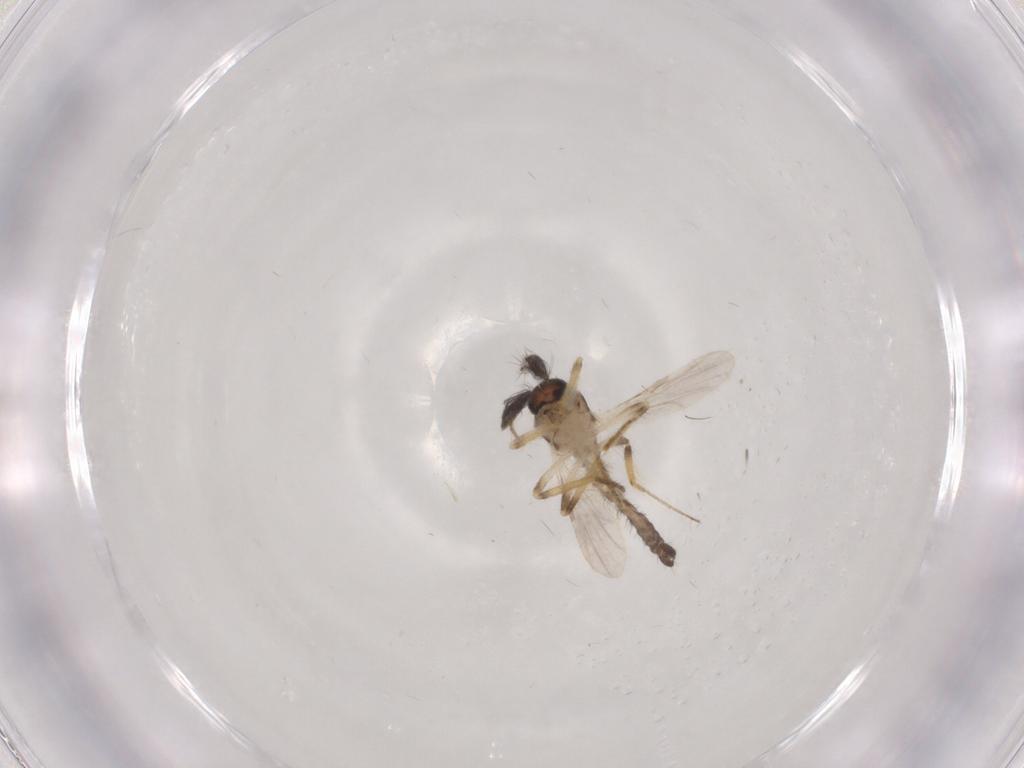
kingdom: Animalia
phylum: Arthropoda
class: Insecta
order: Diptera
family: Sciaridae
